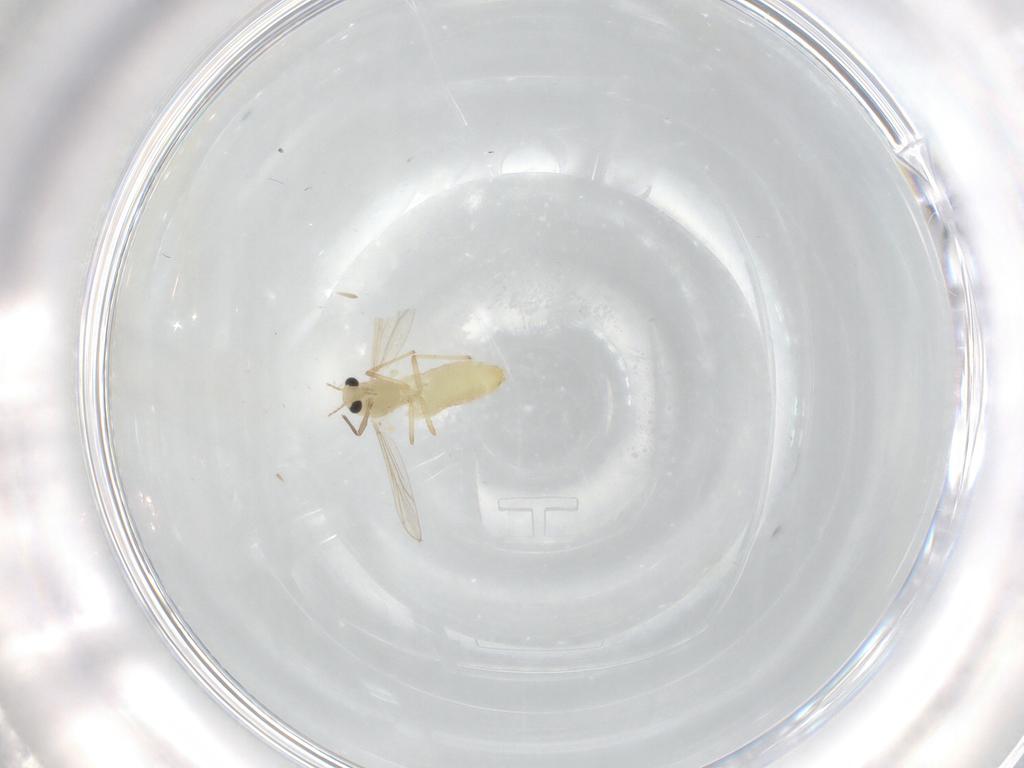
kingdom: Animalia
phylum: Arthropoda
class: Insecta
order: Diptera
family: Chironomidae
